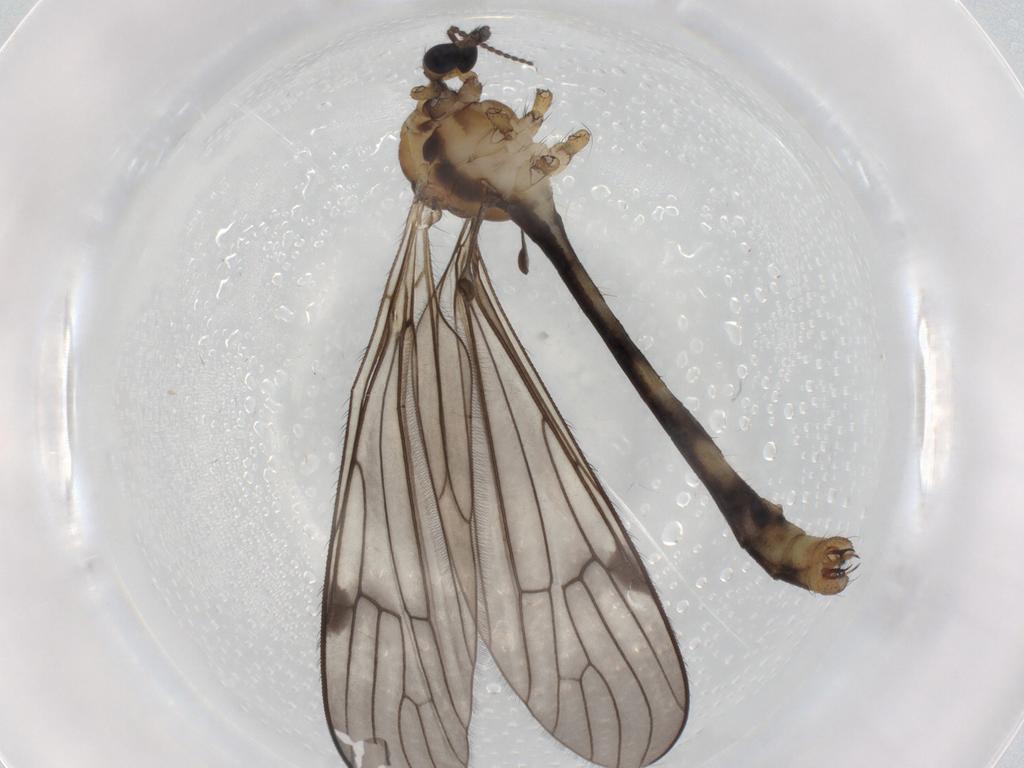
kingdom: Animalia
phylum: Arthropoda
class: Insecta
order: Diptera
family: Limoniidae
